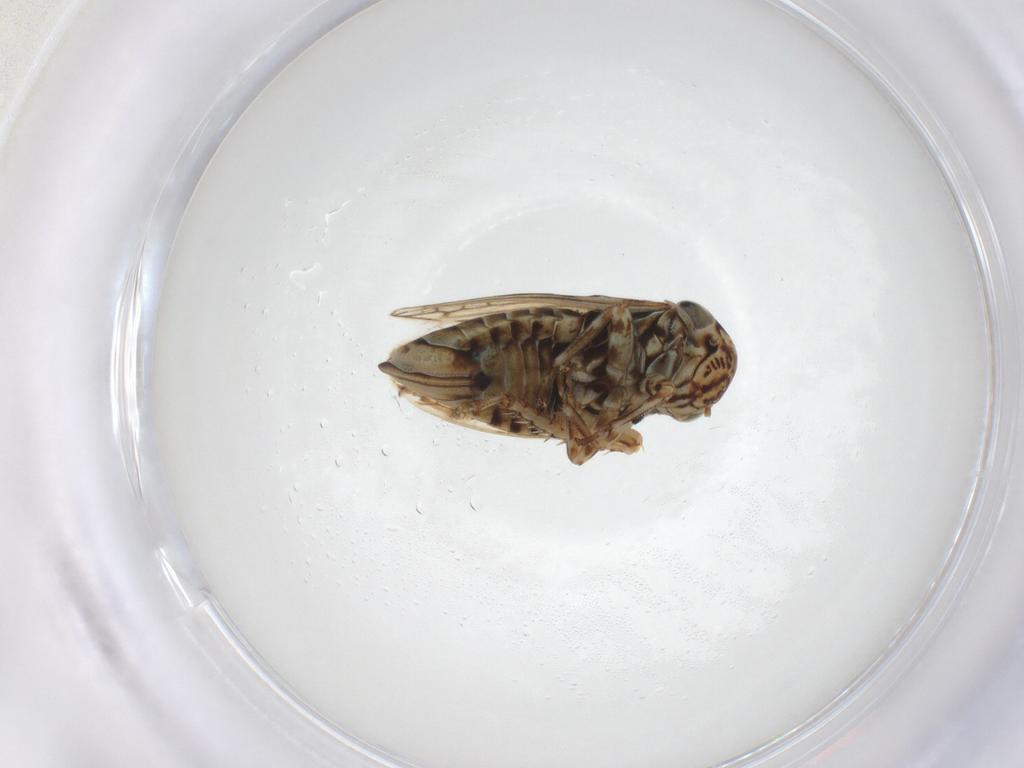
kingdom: Animalia
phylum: Arthropoda
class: Insecta
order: Hemiptera
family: Cicadellidae
